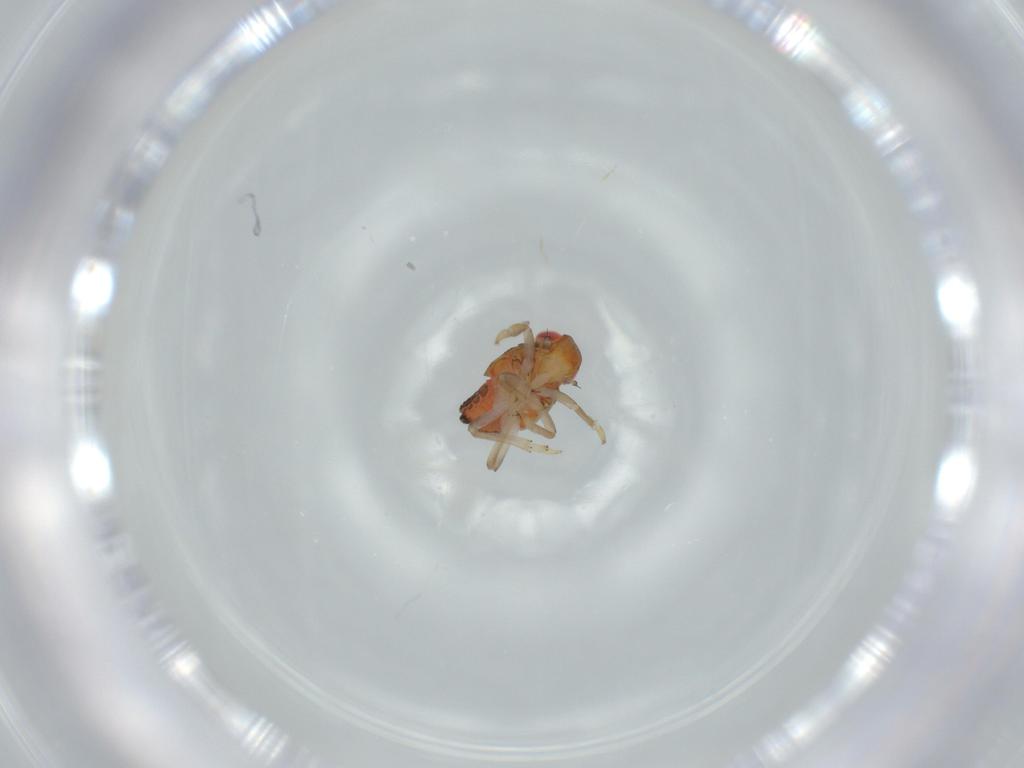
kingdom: Animalia
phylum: Arthropoda
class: Insecta
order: Hemiptera
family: Issidae
